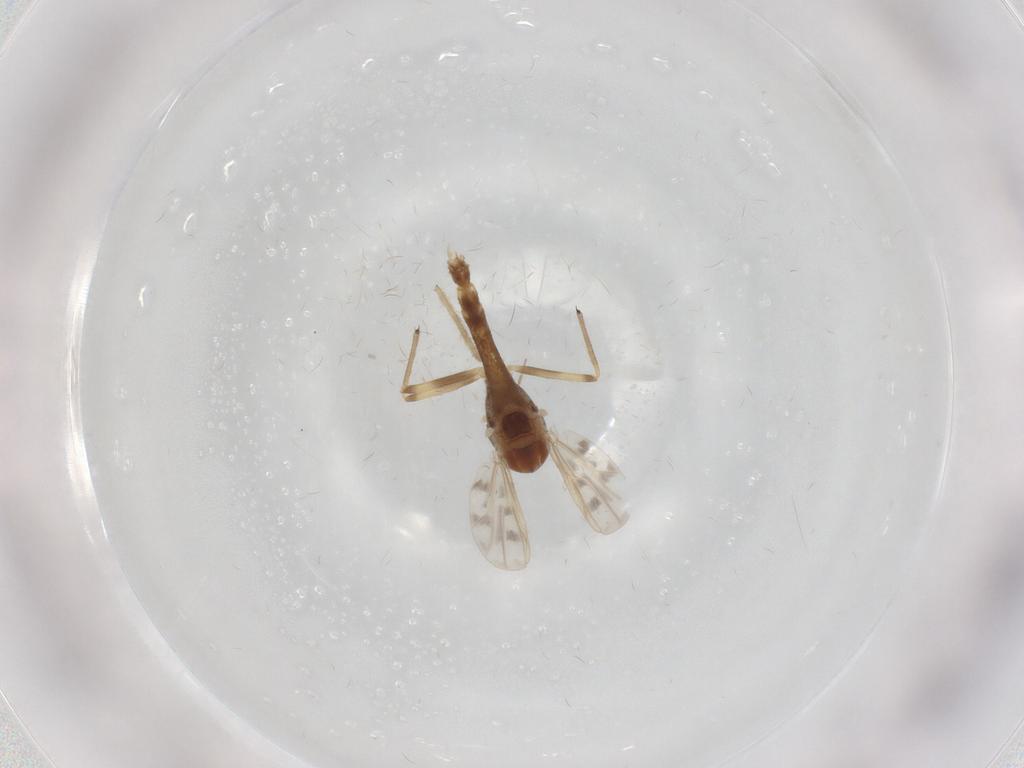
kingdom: Animalia
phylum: Arthropoda
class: Insecta
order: Diptera
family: Chironomidae
